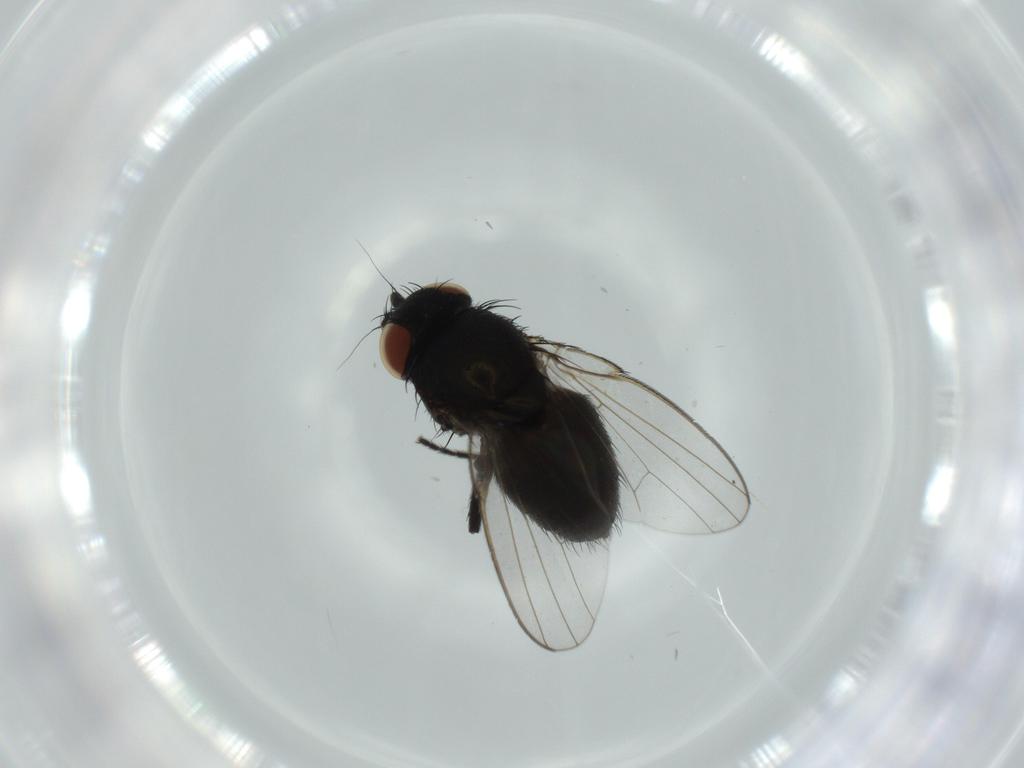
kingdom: Animalia
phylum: Arthropoda
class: Insecta
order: Diptera
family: Milichiidae
